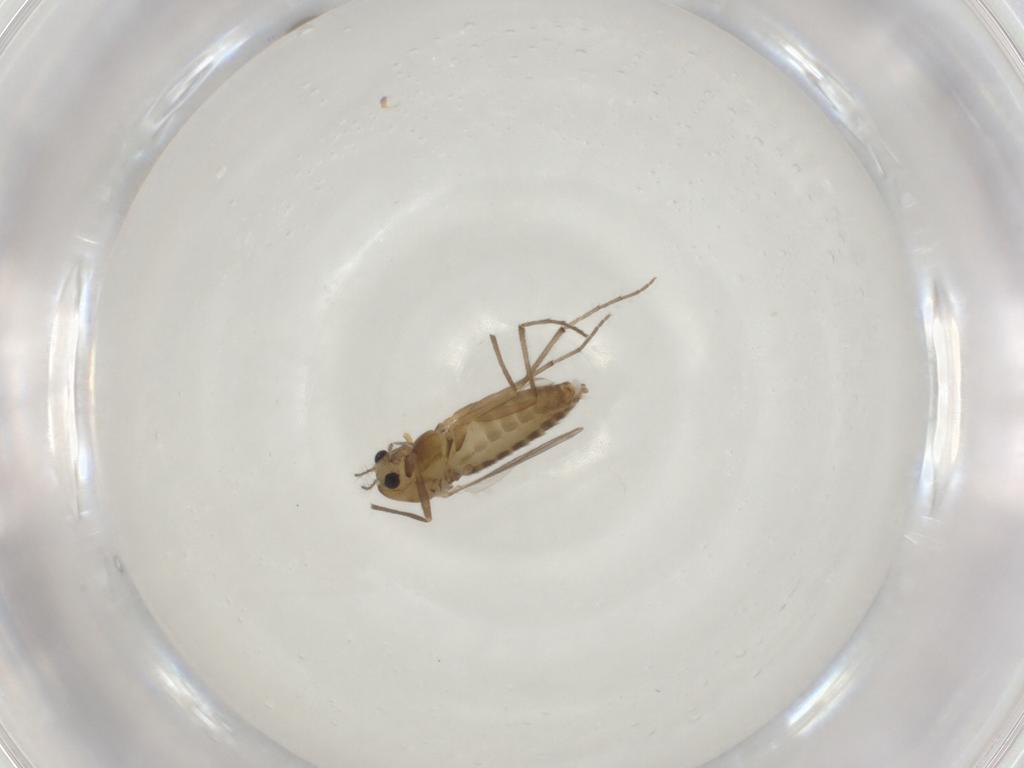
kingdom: Animalia
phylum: Arthropoda
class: Insecta
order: Diptera
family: Chironomidae
